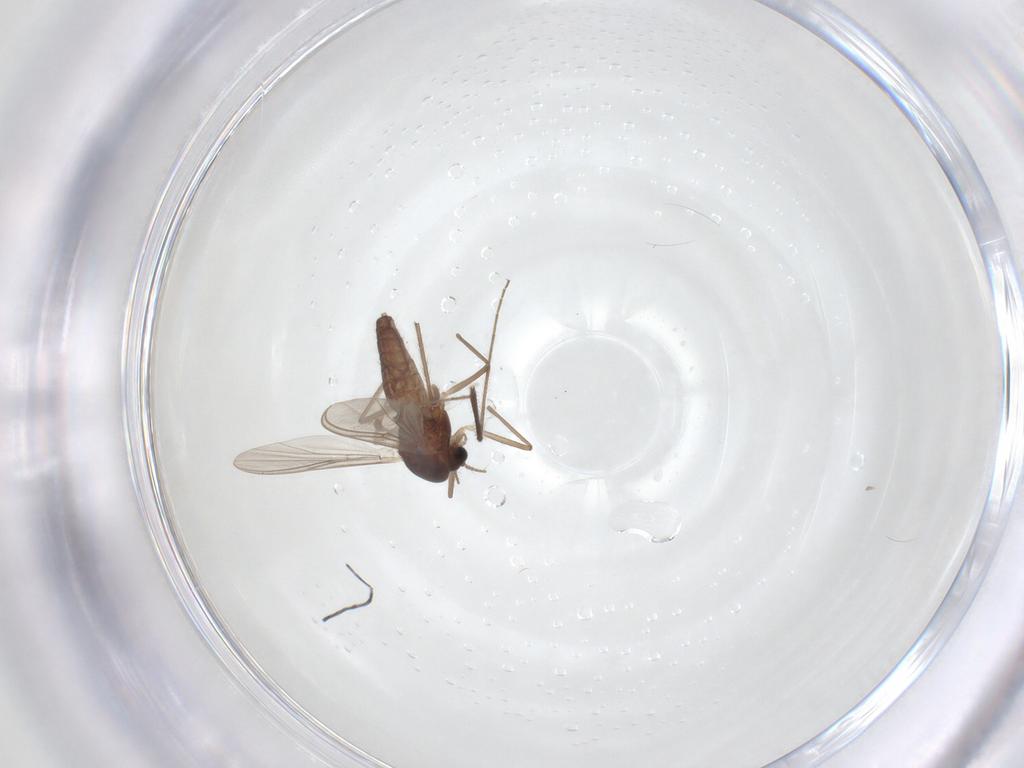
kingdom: Animalia
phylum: Arthropoda
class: Insecta
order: Diptera
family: Chironomidae
